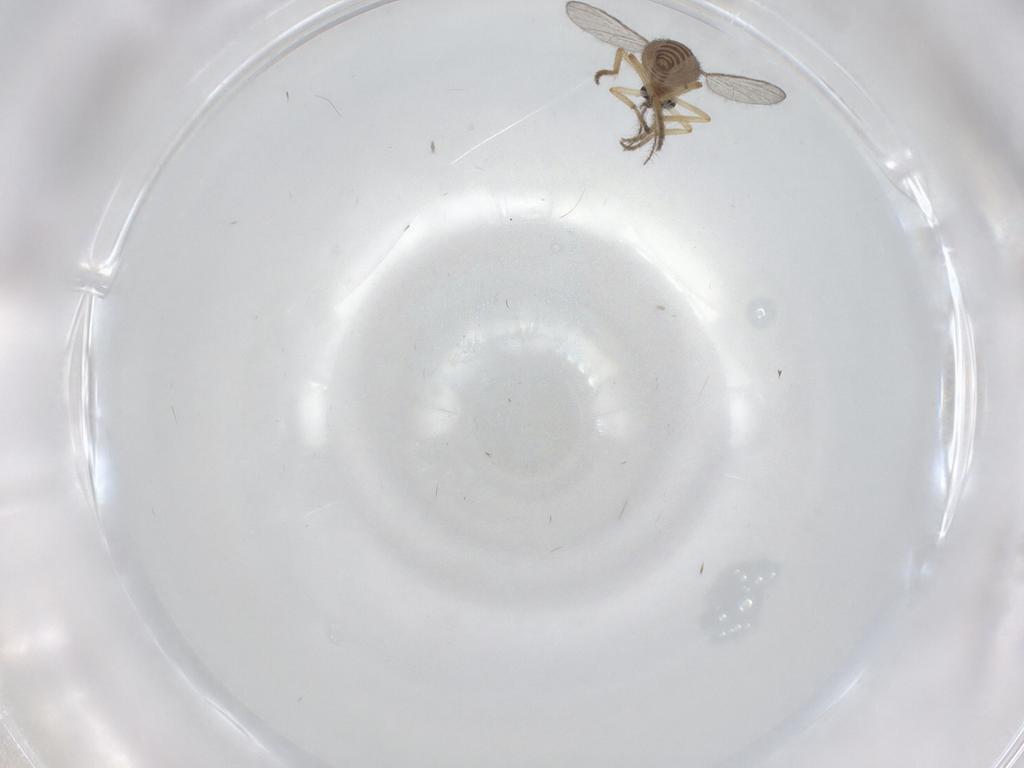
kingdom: Animalia
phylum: Arthropoda
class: Insecta
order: Diptera
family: Ceratopogonidae
